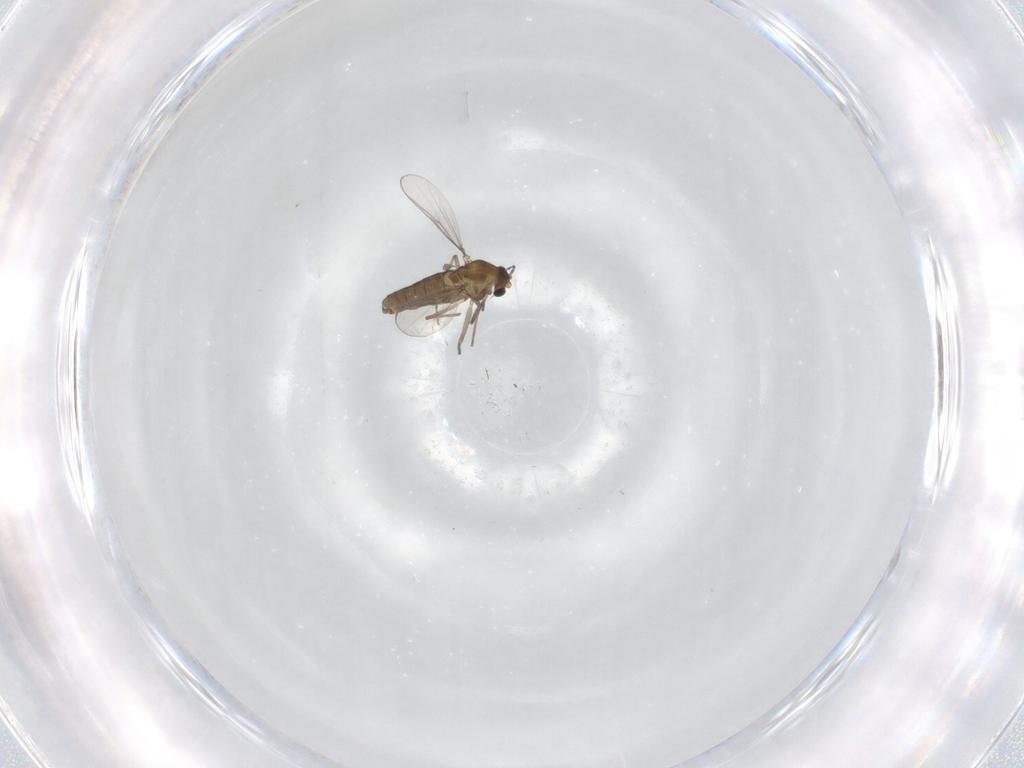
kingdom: Animalia
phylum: Arthropoda
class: Insecta
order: Diptera
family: Chironomidae
